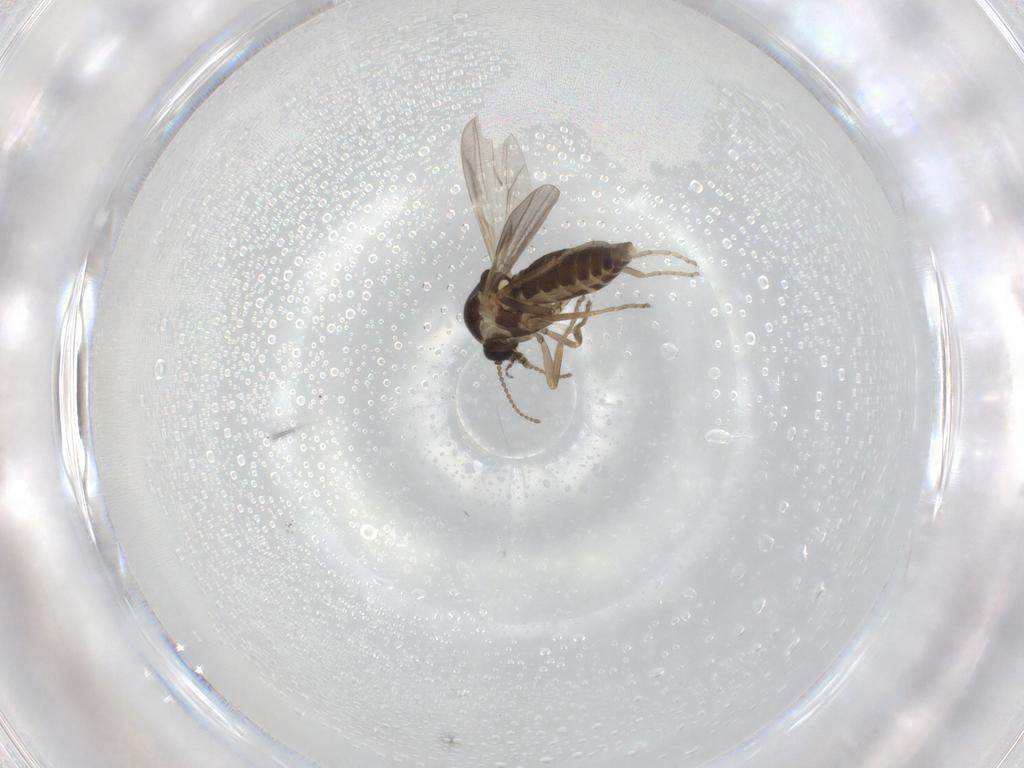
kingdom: Animalia
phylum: Arthropoda
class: Insecta
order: Diptera
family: Ceratopogonidae
